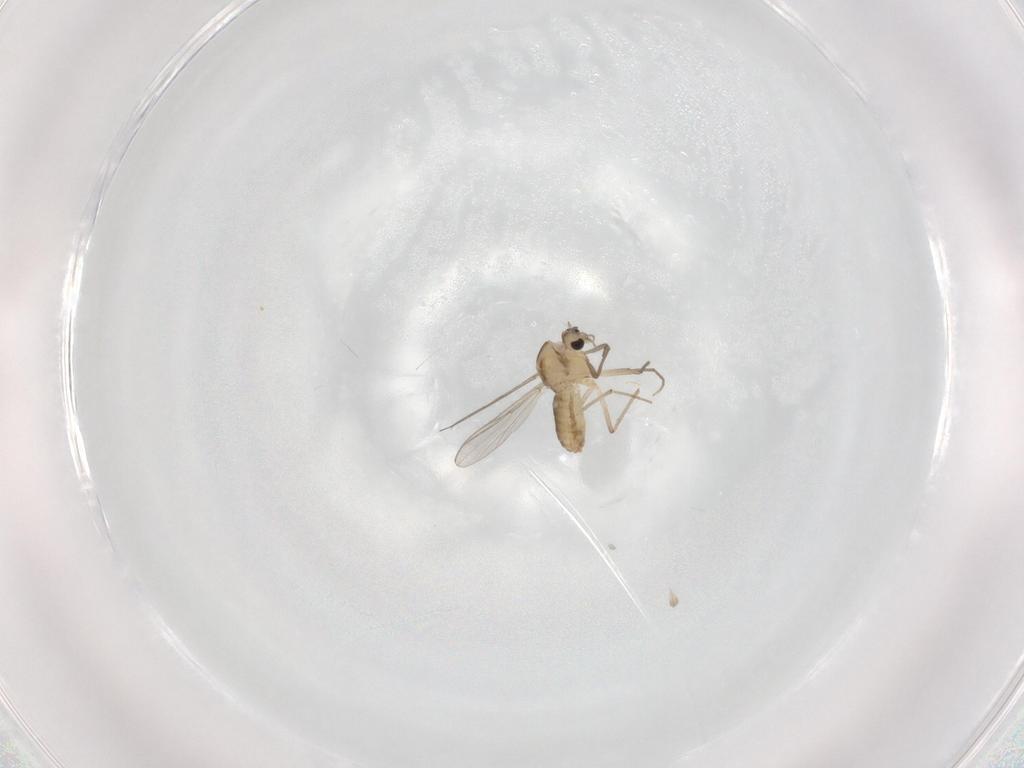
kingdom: Animalia
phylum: Arthropoda
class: Insecta
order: Diptera
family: Chironomidae
